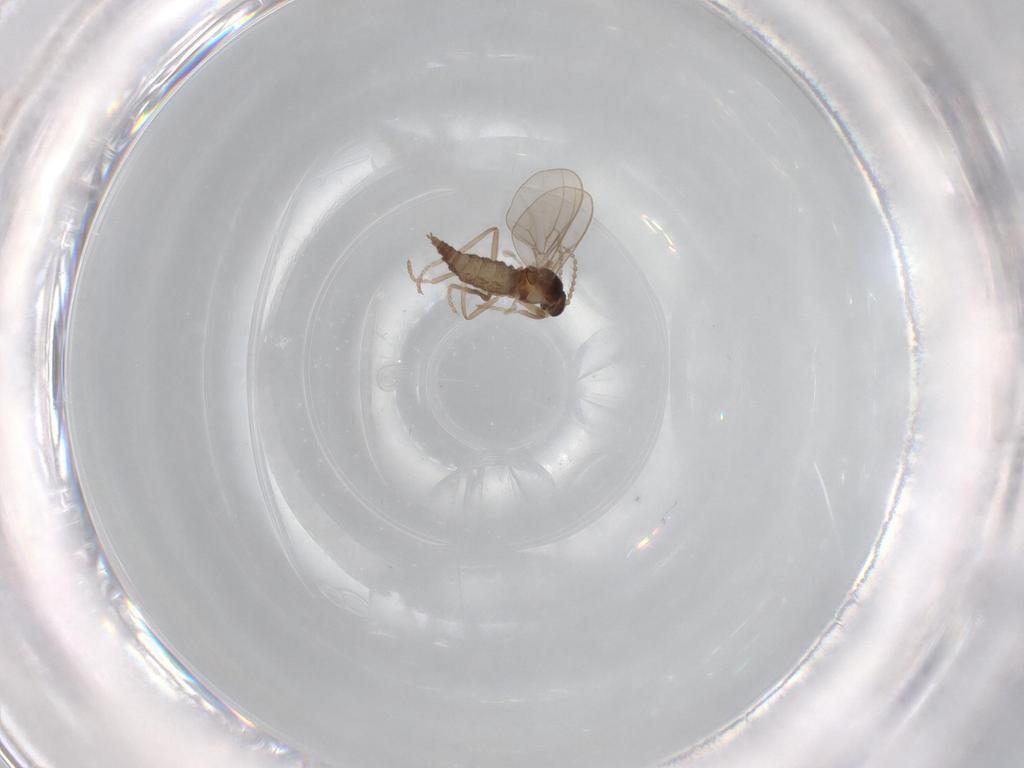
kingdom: Animalia
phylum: Arthropoda
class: Insecta
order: Diptera
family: Cecidomyiidae
